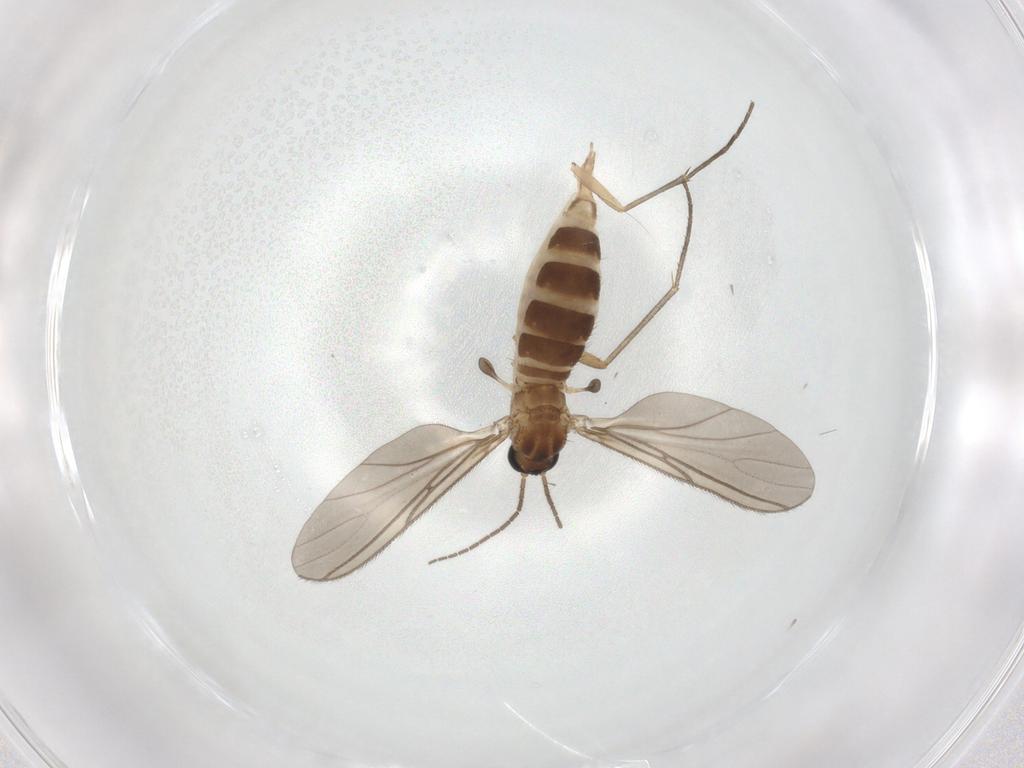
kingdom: Animalia
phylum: Arthropoda
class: Insecta
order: Diptera
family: Sciaridae
